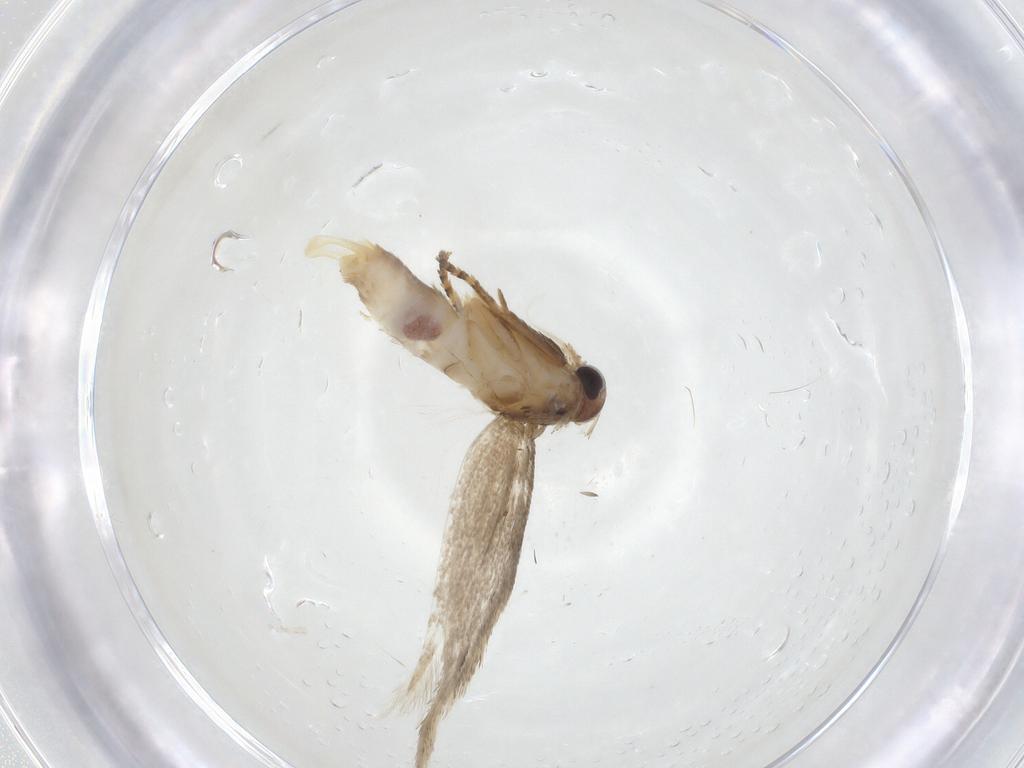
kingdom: Animalia
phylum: Arthropoda
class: Insecta
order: Lepidoptera
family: Elachistidae
